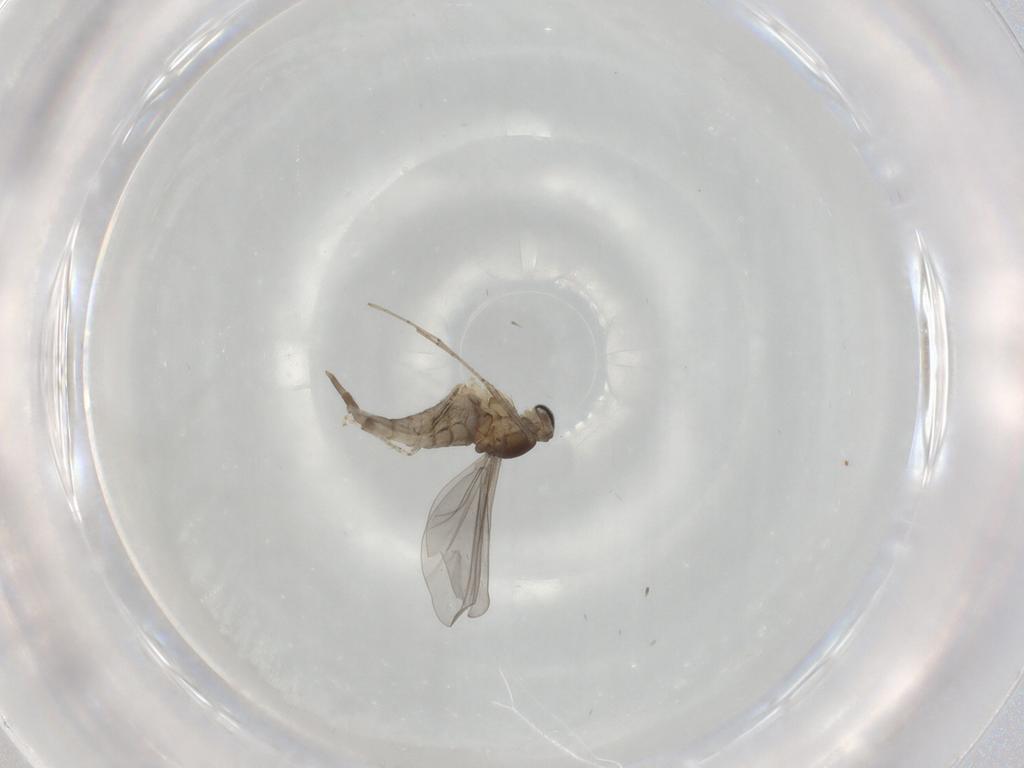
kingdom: Animalia
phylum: Arthropoda
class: Insecta
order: Diptera
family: Cecidomyiidae
